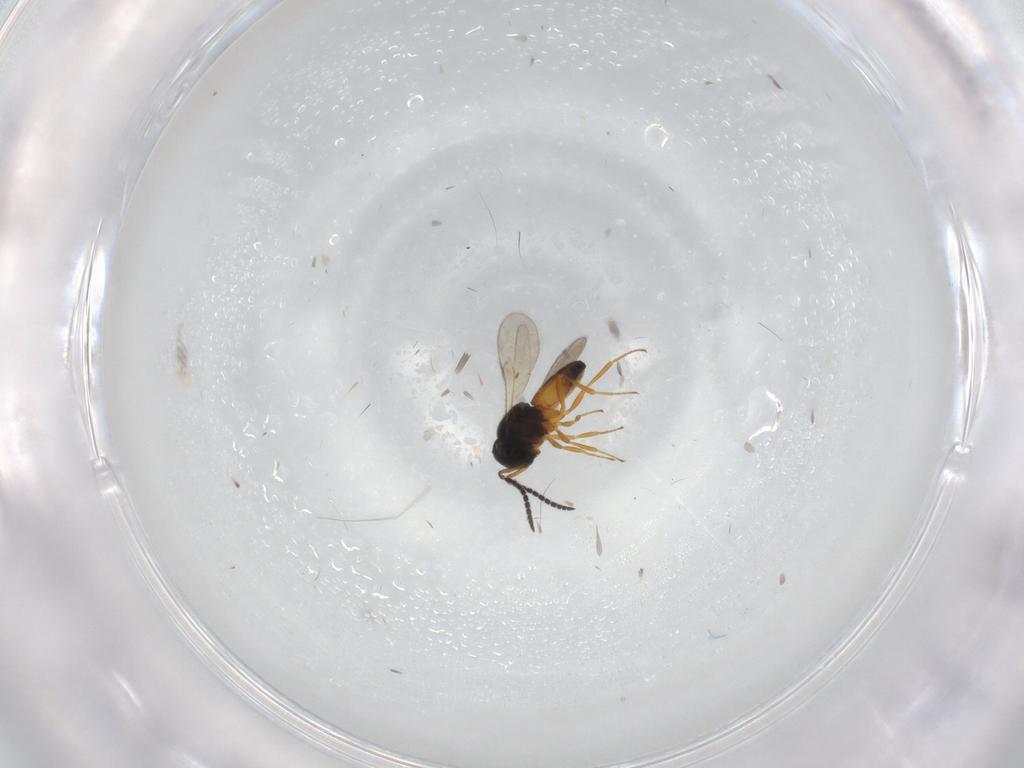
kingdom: Animalia
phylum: Arthropoda
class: Insecta
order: Hymenoptera
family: Scelionidae
